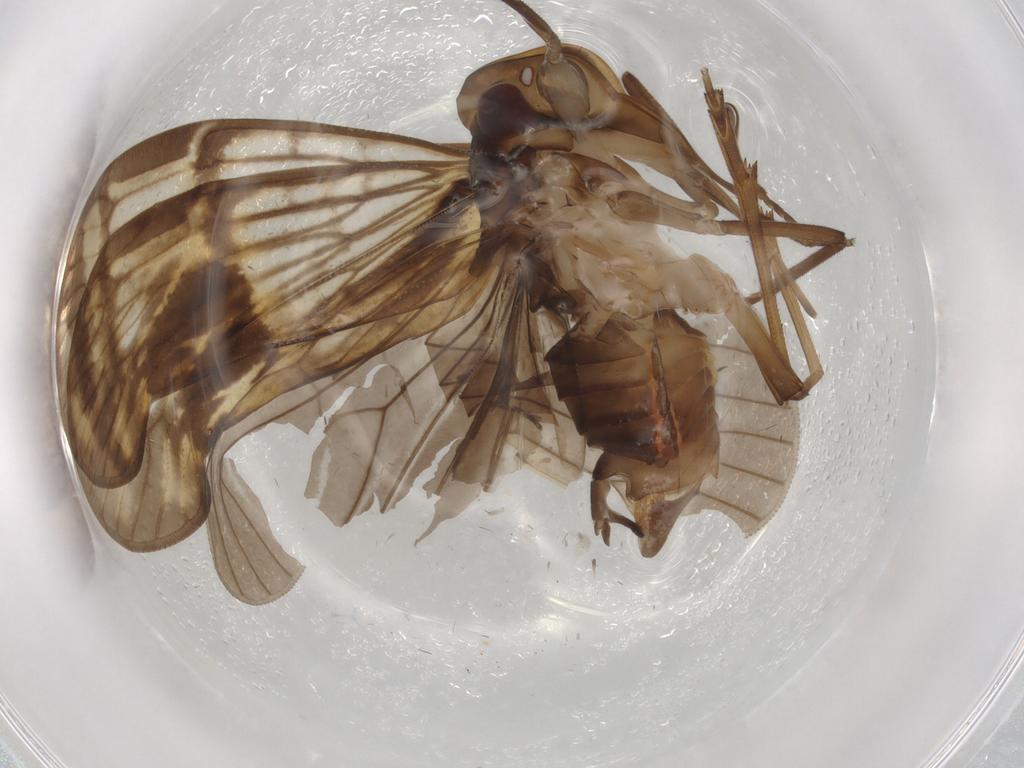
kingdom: Animalia
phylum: Arthropoda
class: Insecta
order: Hemiptera
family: Cixiidae
